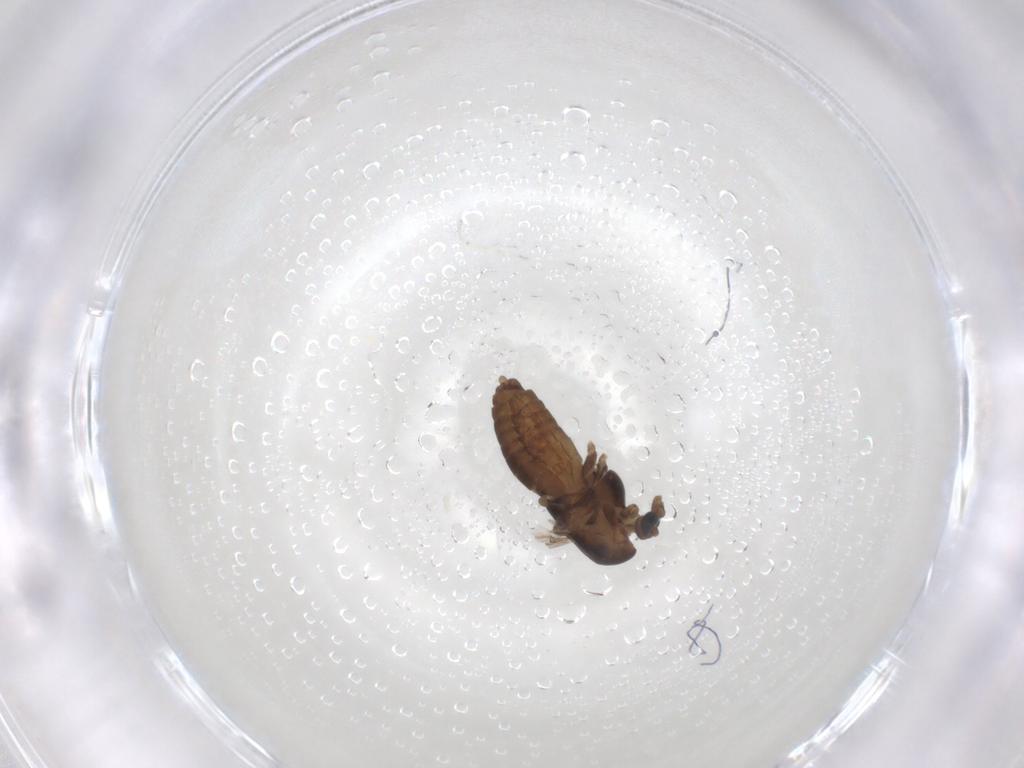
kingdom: Animalia
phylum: Arthropoda
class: Insecta
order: Diptera
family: Chironomidae
